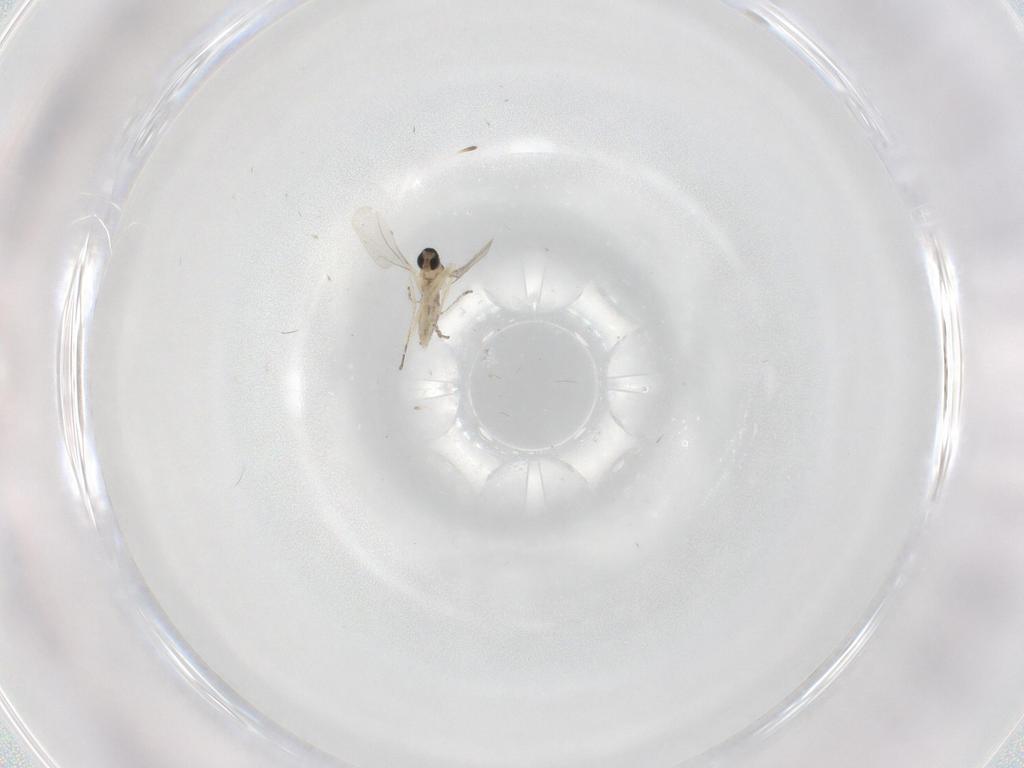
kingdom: Animalia
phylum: Arthropoda
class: Insecta
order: Diptera
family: Cecidomyiidae
